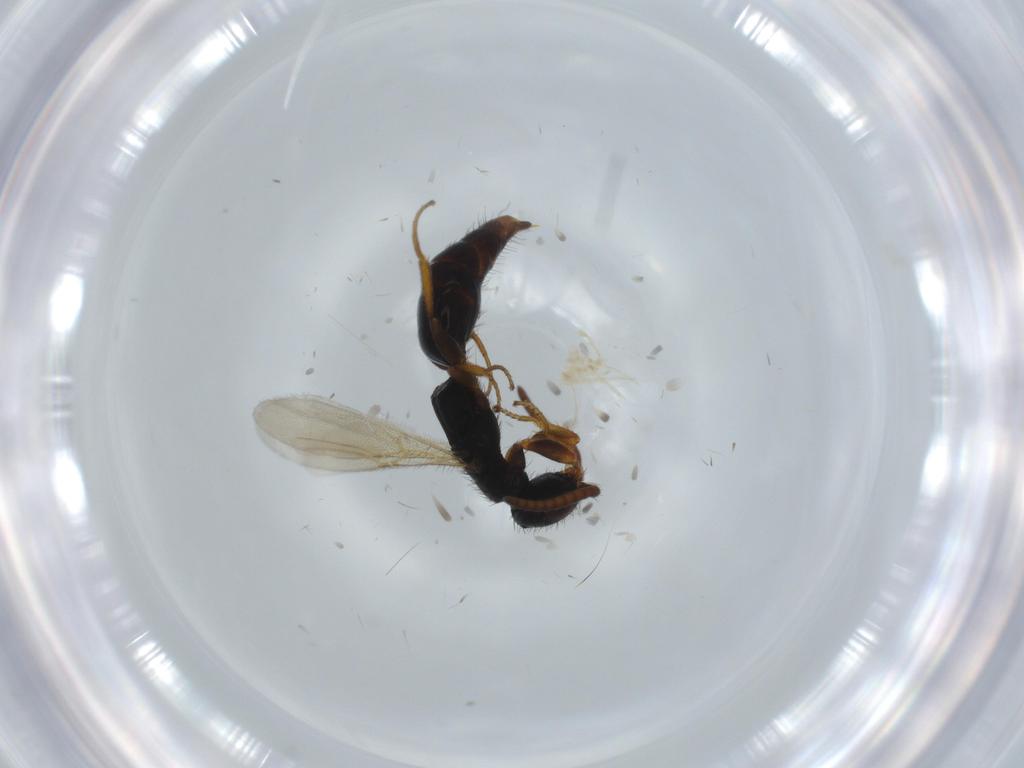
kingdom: Animalia
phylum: Arthropoda
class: Insecta
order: Hymenoptera
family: Bethylidae
